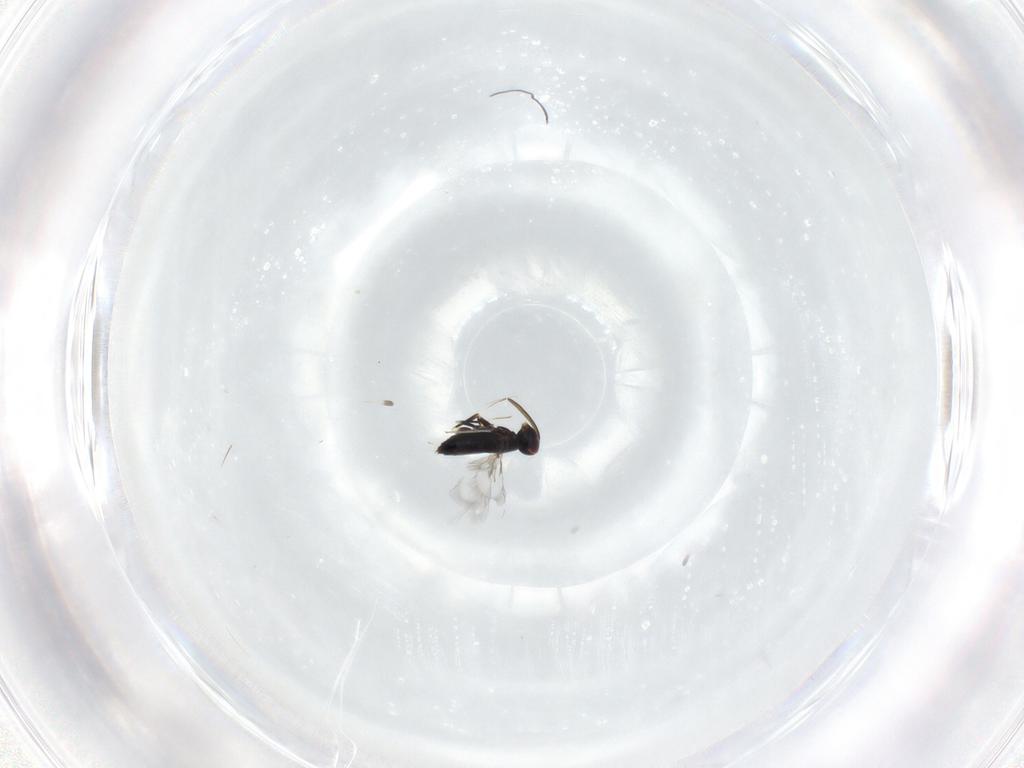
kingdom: Animalia
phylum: Arthropoda
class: Insecta
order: Hymenoptera
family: Signiphoridae
